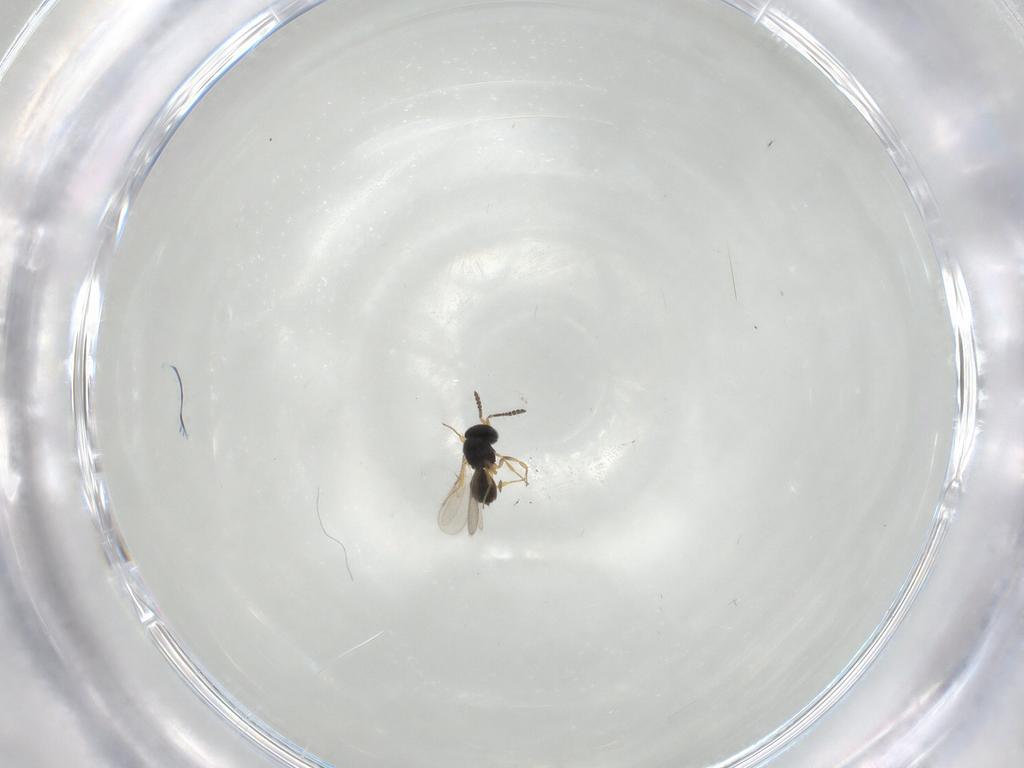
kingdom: Animalia
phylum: Arthropoda
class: Insecta
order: Hymenoptera
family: Scelionidae
